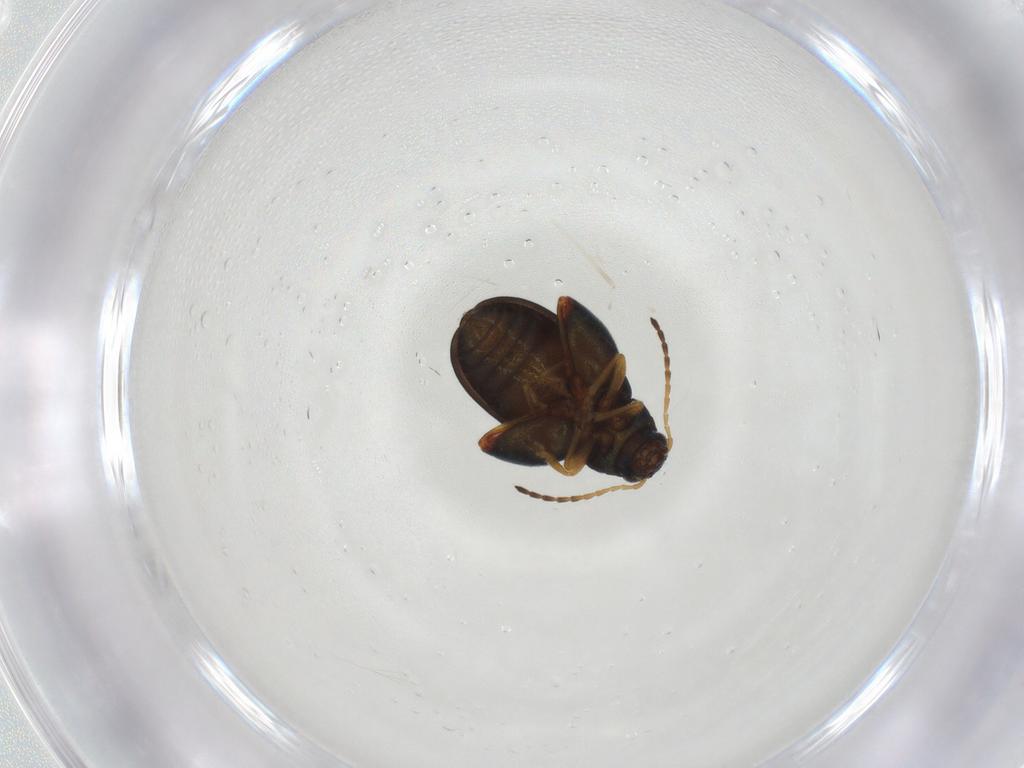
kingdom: Animalia
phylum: Arthropoda
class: Insecta
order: Coleoptera
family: Chrysomelidae
